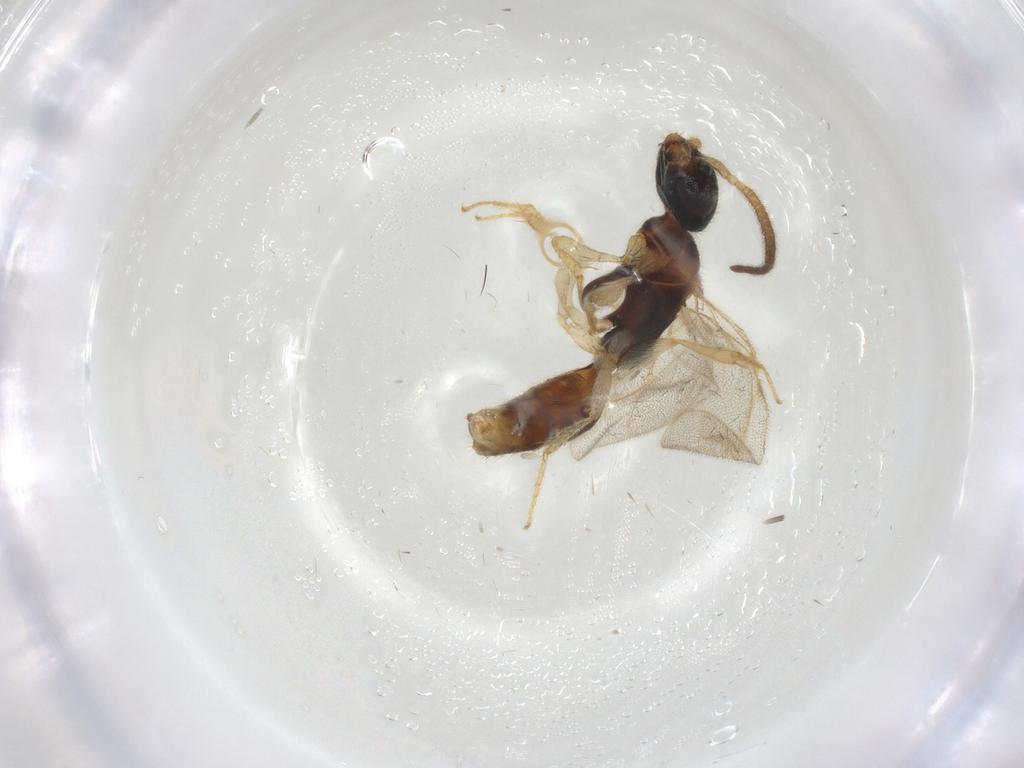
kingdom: Animalia
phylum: Arthropoda
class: Insecta
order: Hymenoptera
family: Bethylidae
